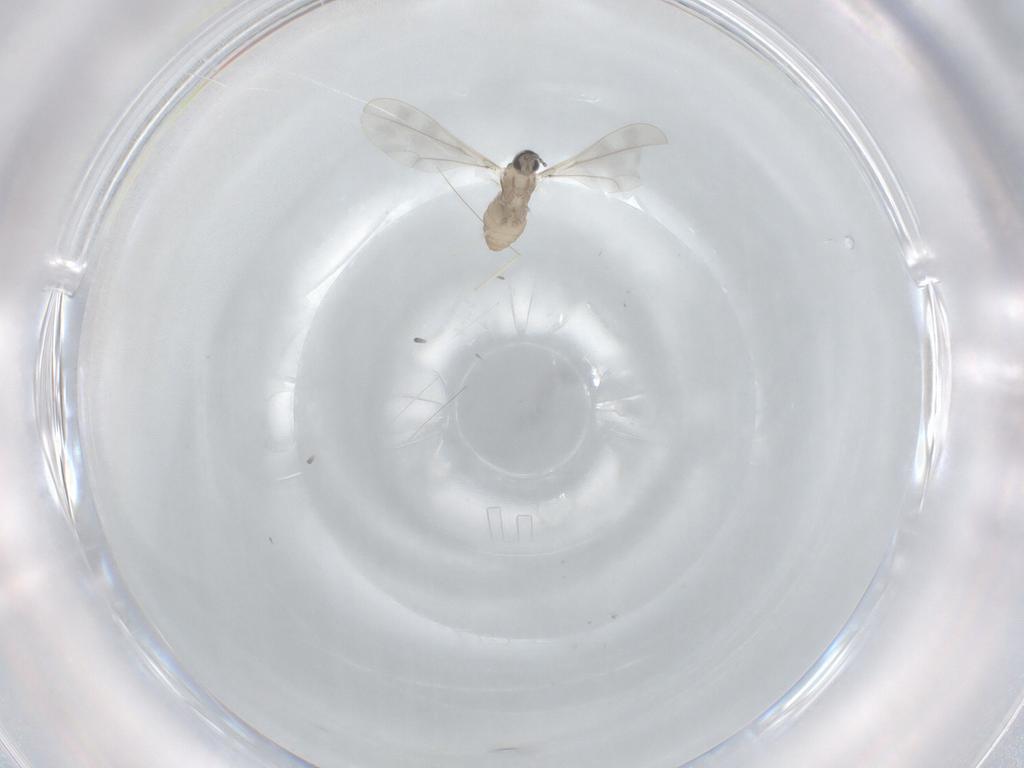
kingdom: Animalia
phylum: Arthropoda
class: Insecta
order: Diptera
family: Cecidomyiidae
